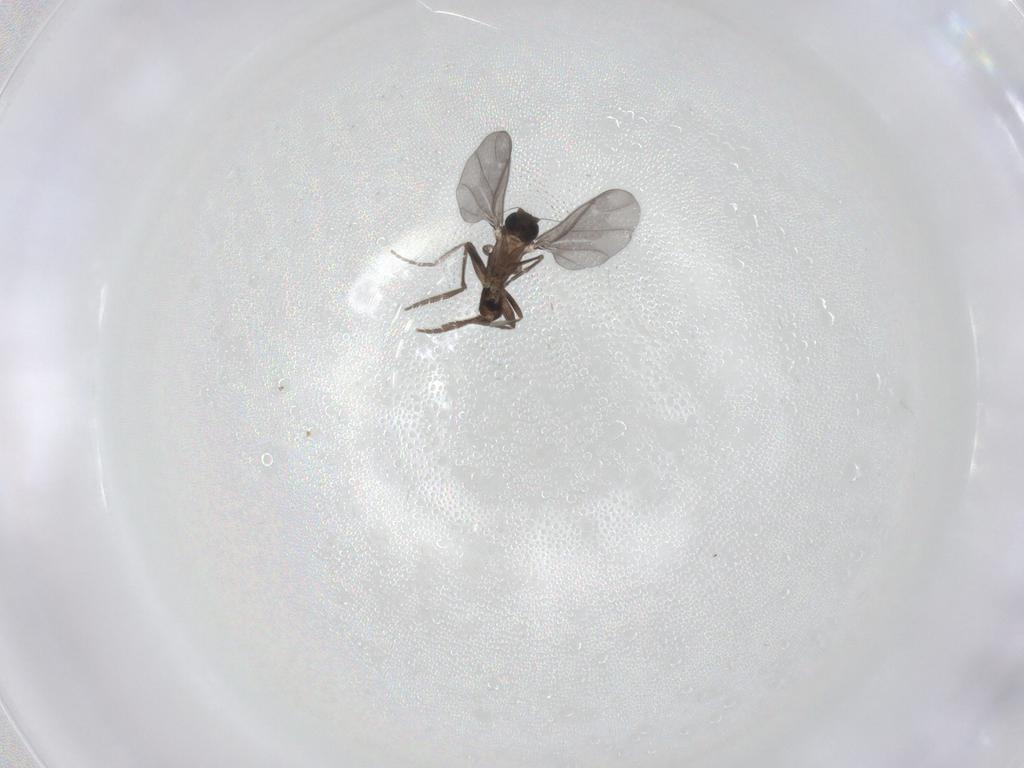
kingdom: Animalia
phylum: Arthropoda
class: Insecta
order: Diptera
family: Phoridae
